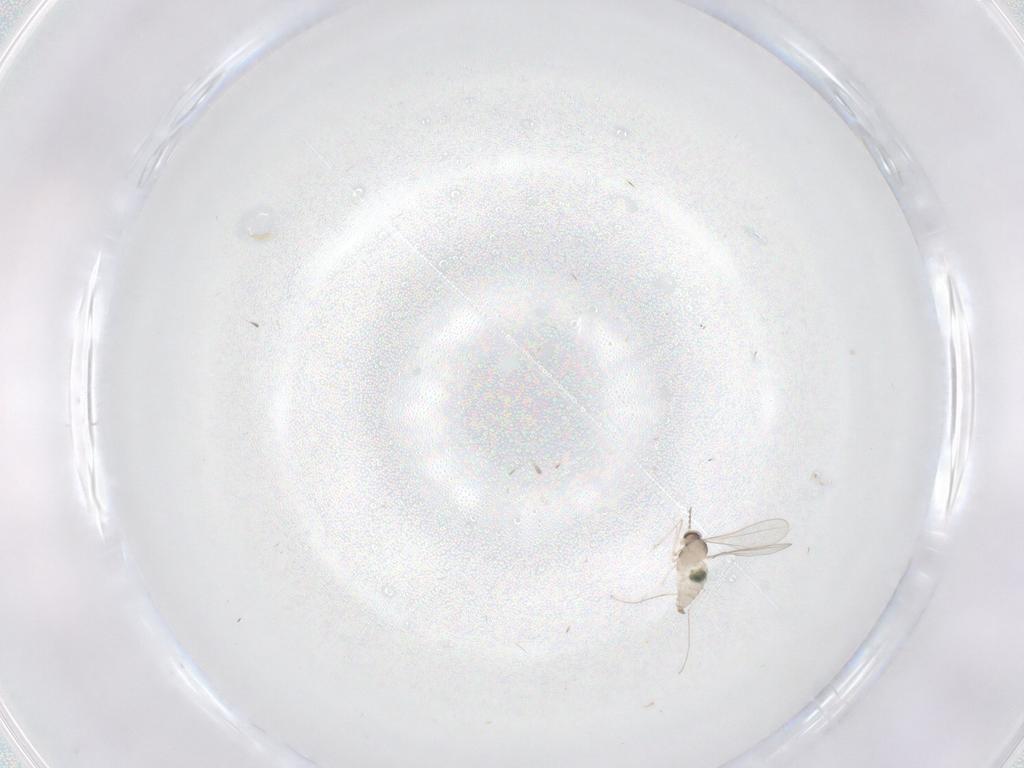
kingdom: Animalia
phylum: Arthropoda
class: Insecta
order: Diptera
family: Cecidomyiidae
